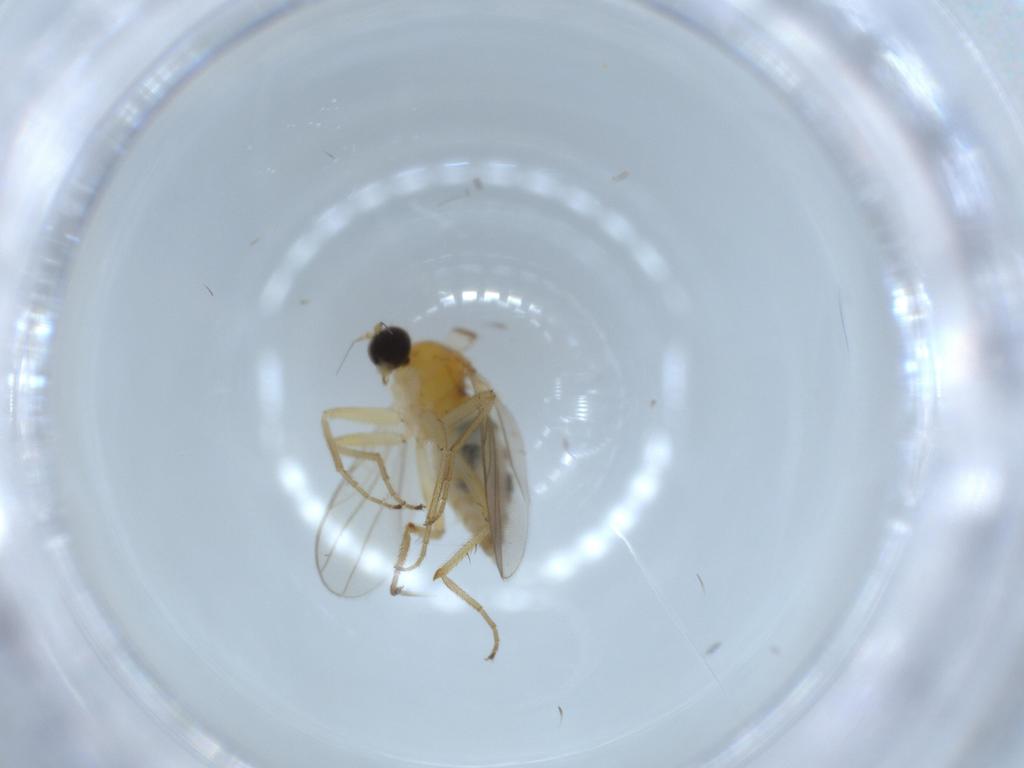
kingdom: Animalia
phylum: Arthropoda
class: Insecta
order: Diptera
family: Hybotidae
